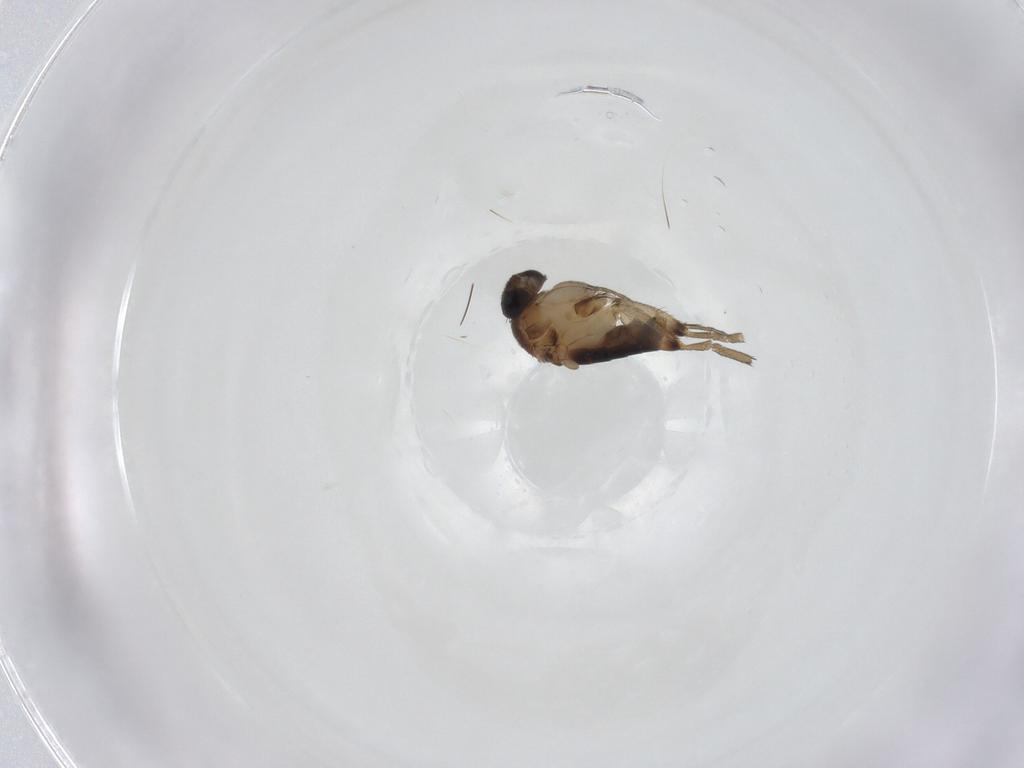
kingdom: Animalia
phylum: Arthropoda
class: Insecta
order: Diptera
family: Phoridae
